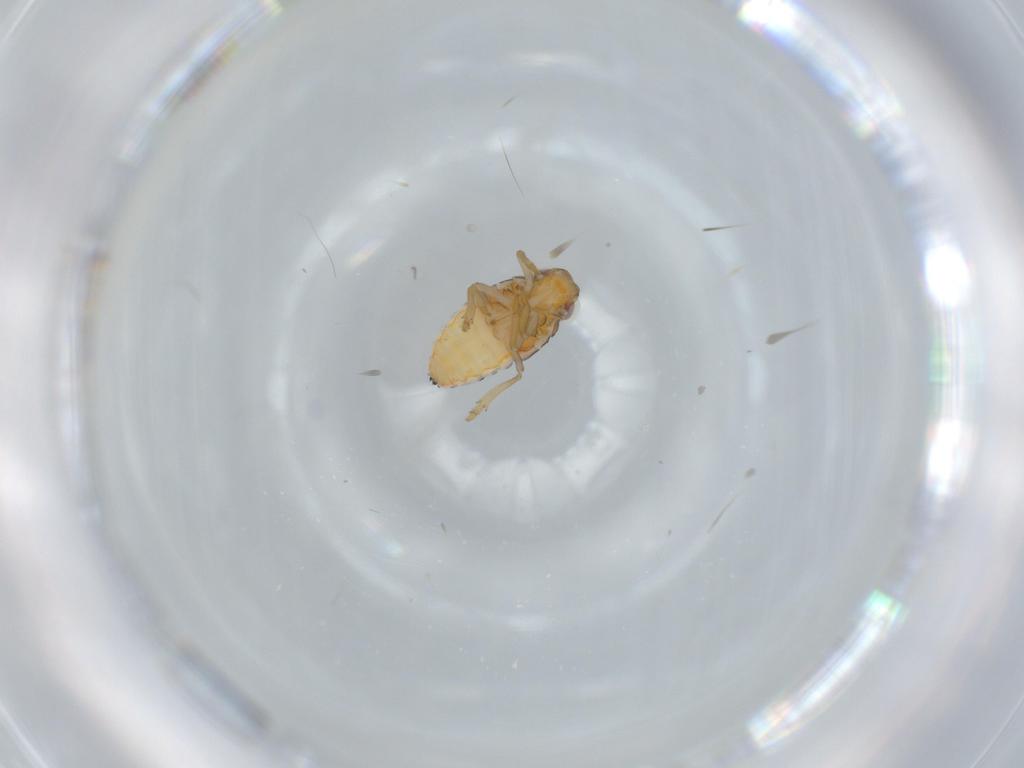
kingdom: Animalia
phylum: Arthropoda
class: Insecta
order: Hemiptera
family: Issidae
